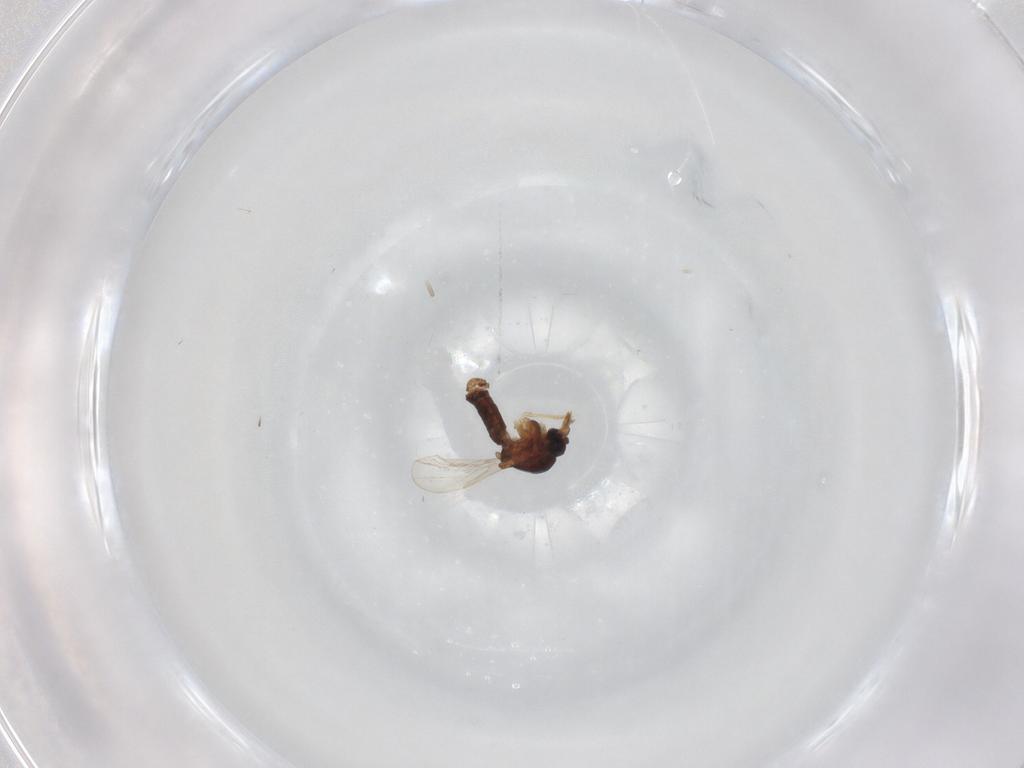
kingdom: Animalia
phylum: Arthropoda
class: Insecta
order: Diptera
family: Ceratopogonidae
